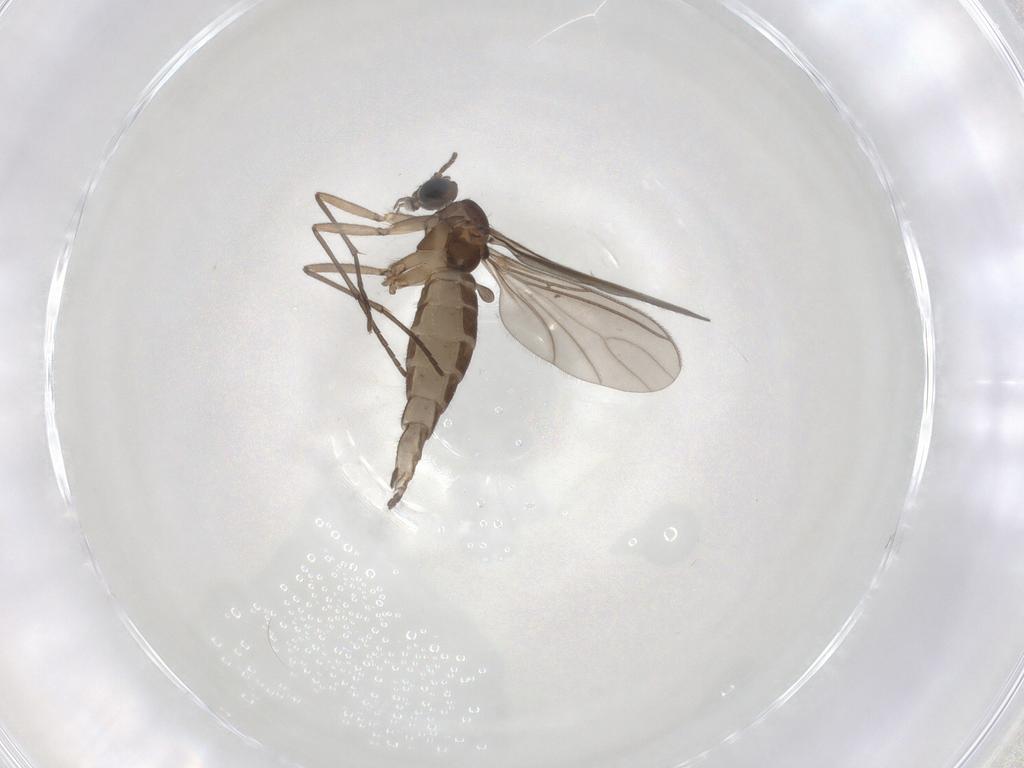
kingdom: Animalia
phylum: Arthropoda
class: Insecta
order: Diptera
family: Sciaridae
